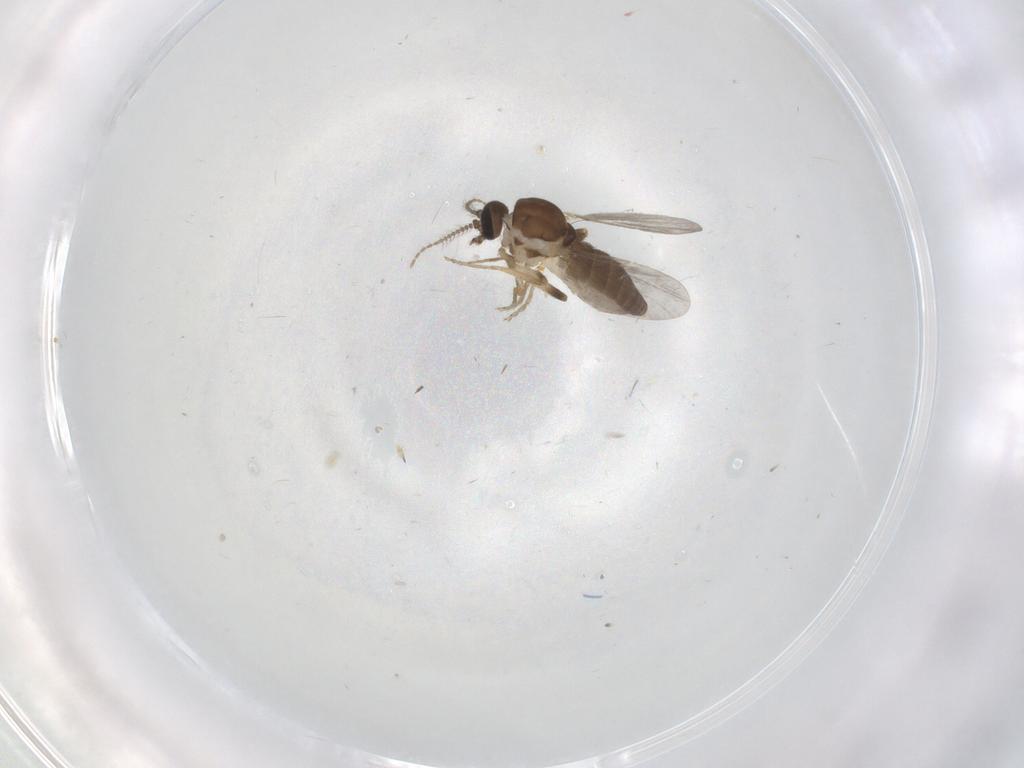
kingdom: Animalia
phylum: Arthropoda
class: Insecta
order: Diptera
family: Ceratopogonidae
